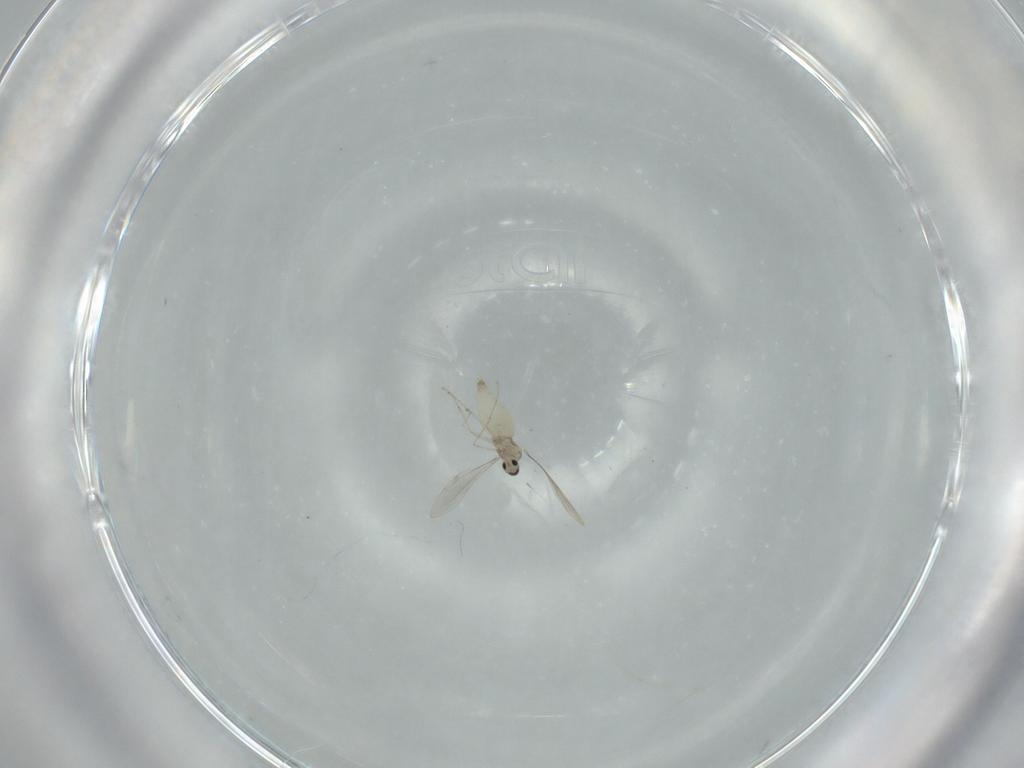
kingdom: Animalia
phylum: Arthropoda
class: Insecta
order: Diptera
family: Cecidomyiidae
